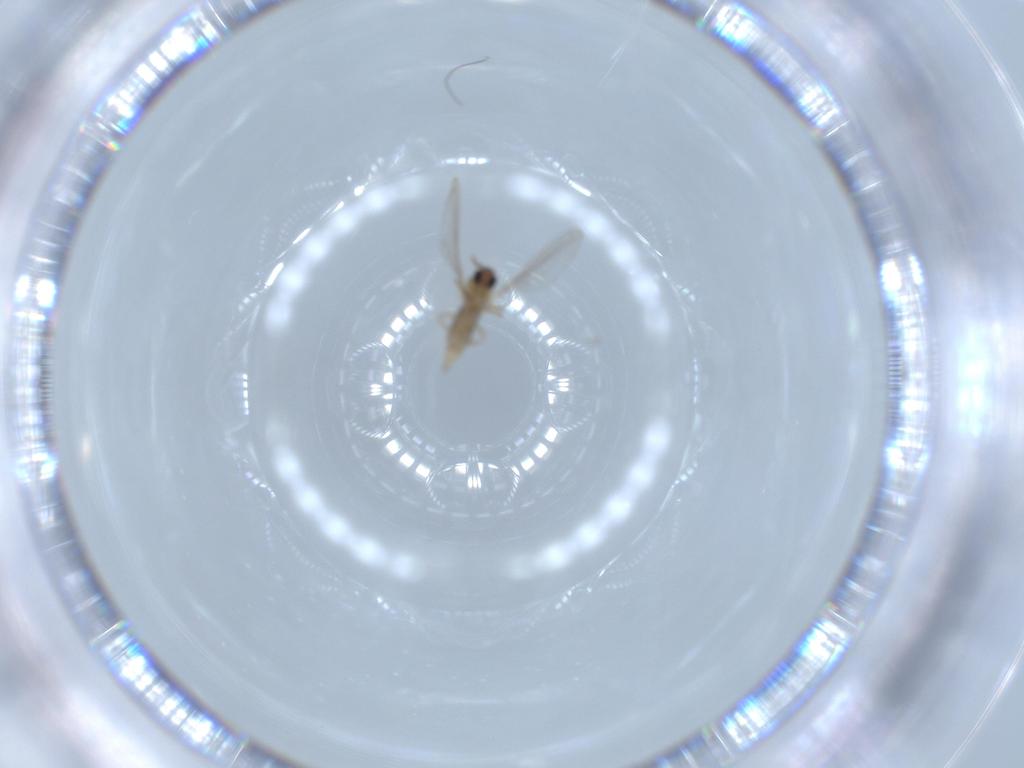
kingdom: Animalia
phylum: Arthropoda
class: Insecta
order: Diptera
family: Cecidomyiidae
